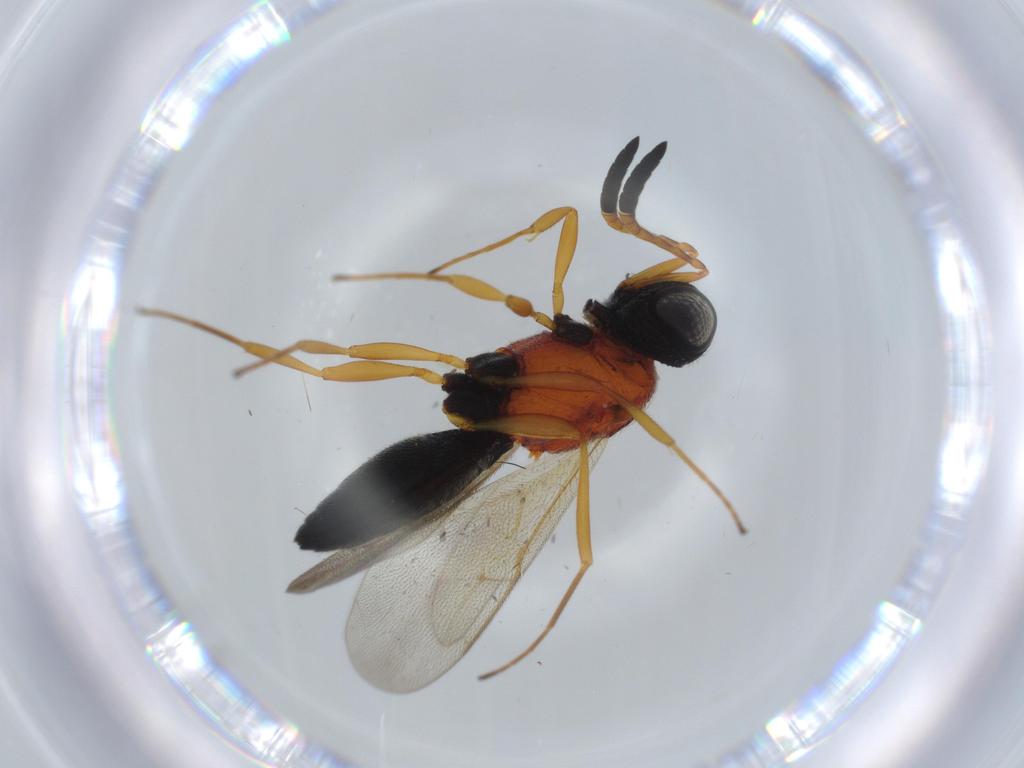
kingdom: Animalia
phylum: Arthropoda
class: Insecta
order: Hymenoptera
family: Scelionidae
